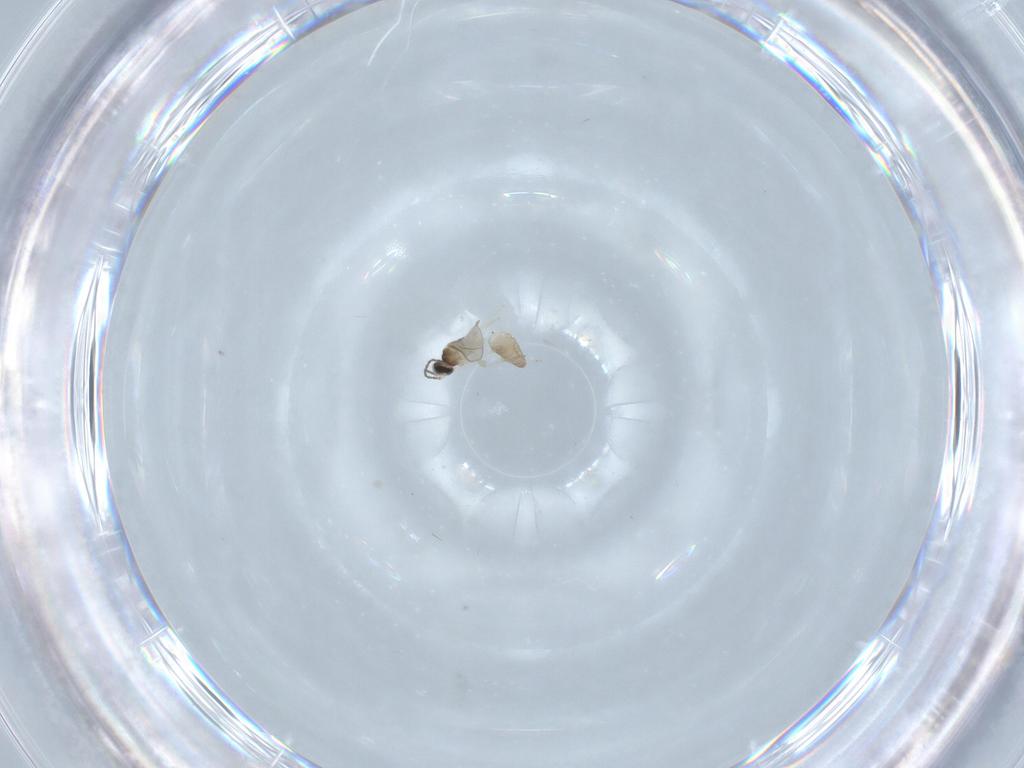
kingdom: Animalia
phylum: Arthropoda
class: Insecta
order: Diptera
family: Cecidomyiidae
